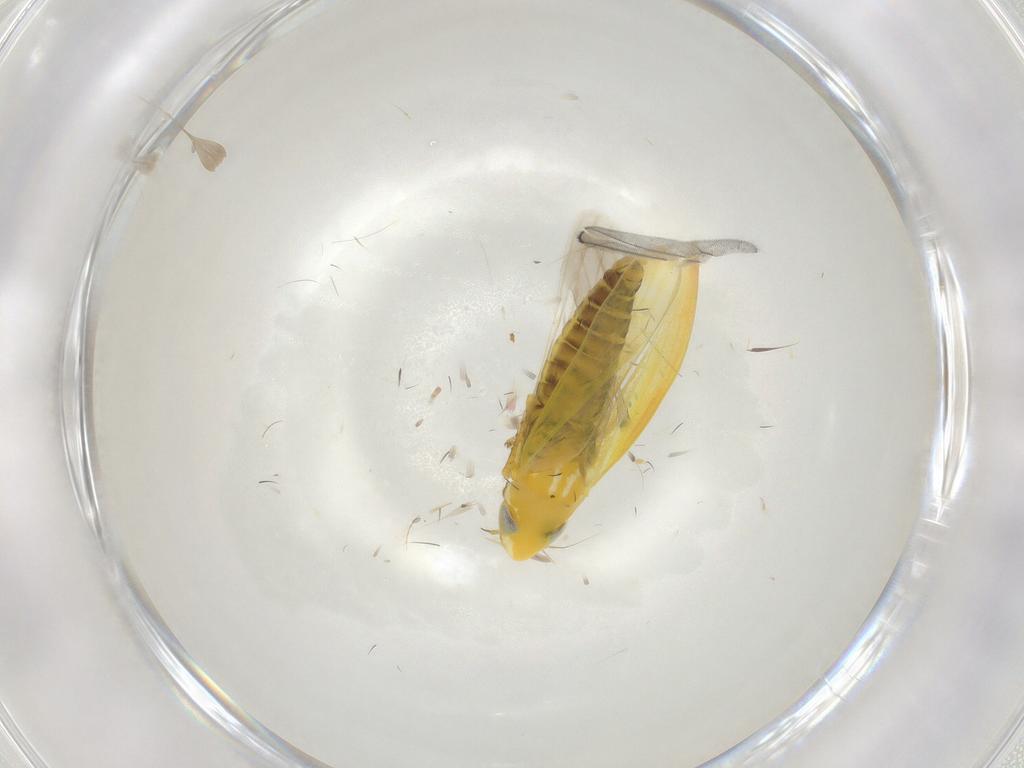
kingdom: Animalia
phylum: Arthropoda
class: Insecta
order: Hemiptera
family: Cicadellidae
